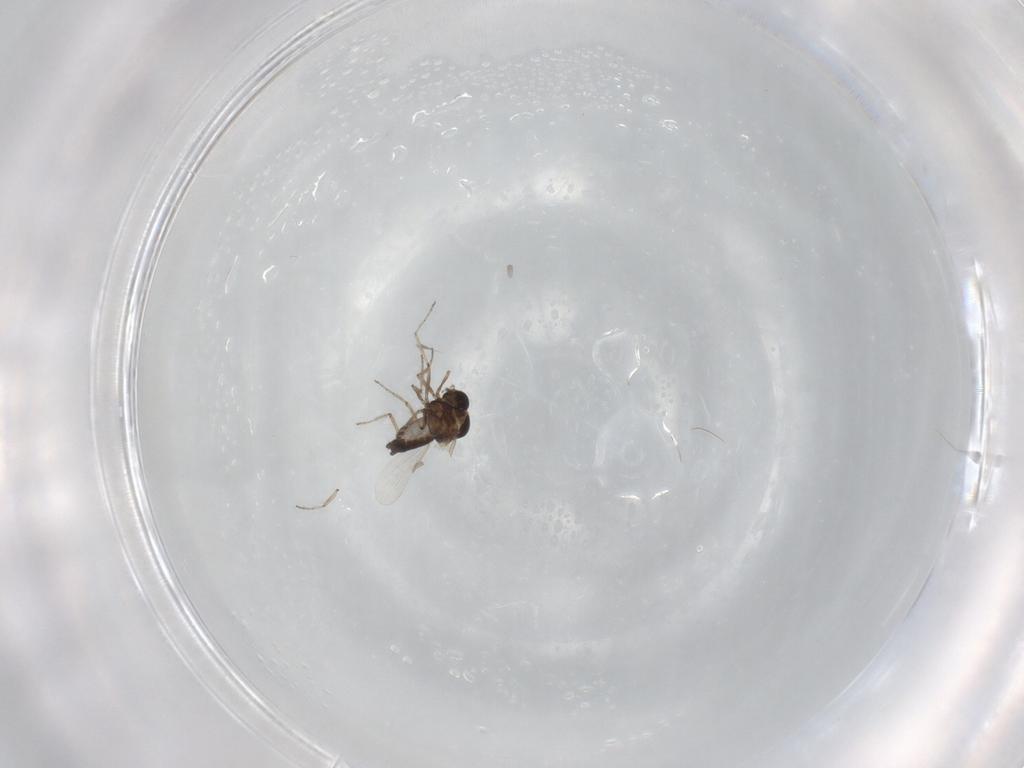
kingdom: Animalia
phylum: Arthropoda
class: Insecta
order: Diptera
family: Ceratopogonidae
